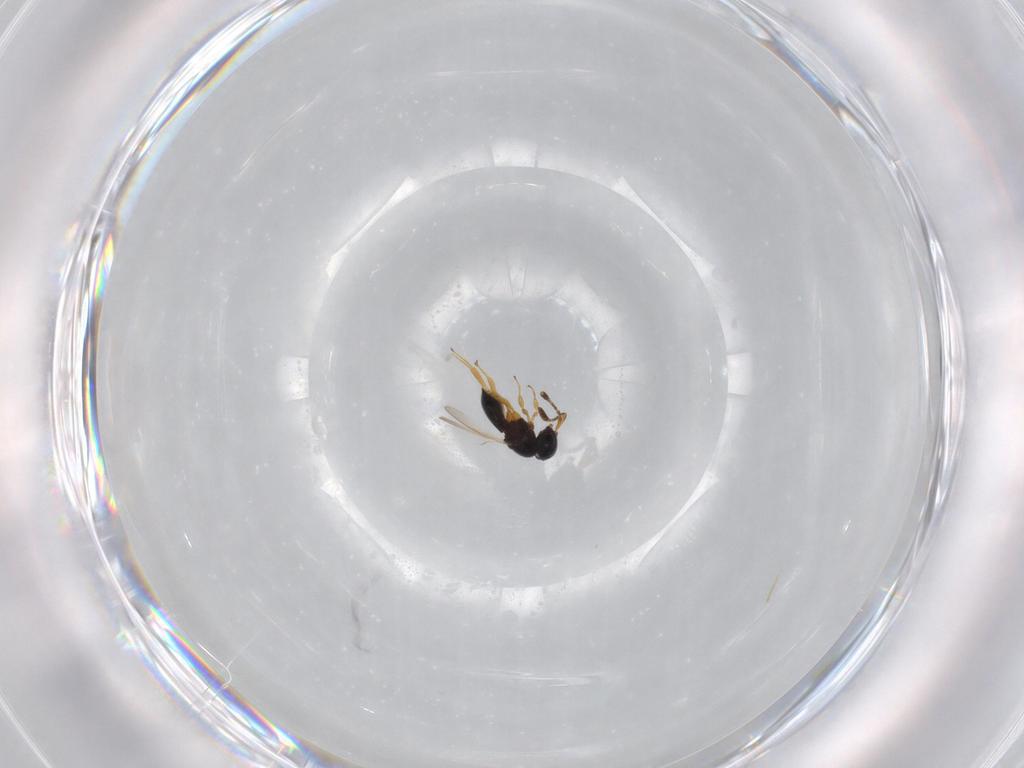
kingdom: Animalia
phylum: Arthropoda
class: Insecta
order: Hymenoptera
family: Scelionidae
